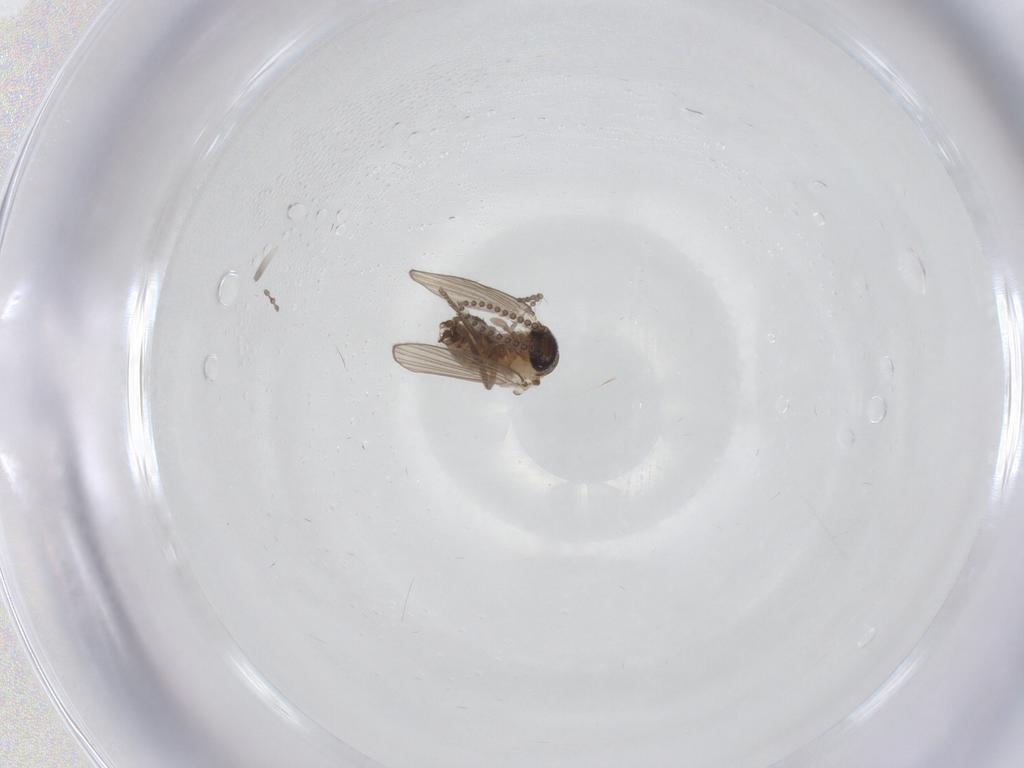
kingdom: Animalia
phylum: Arthropoda
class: Insecta
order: Diptera
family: Psychodidae
